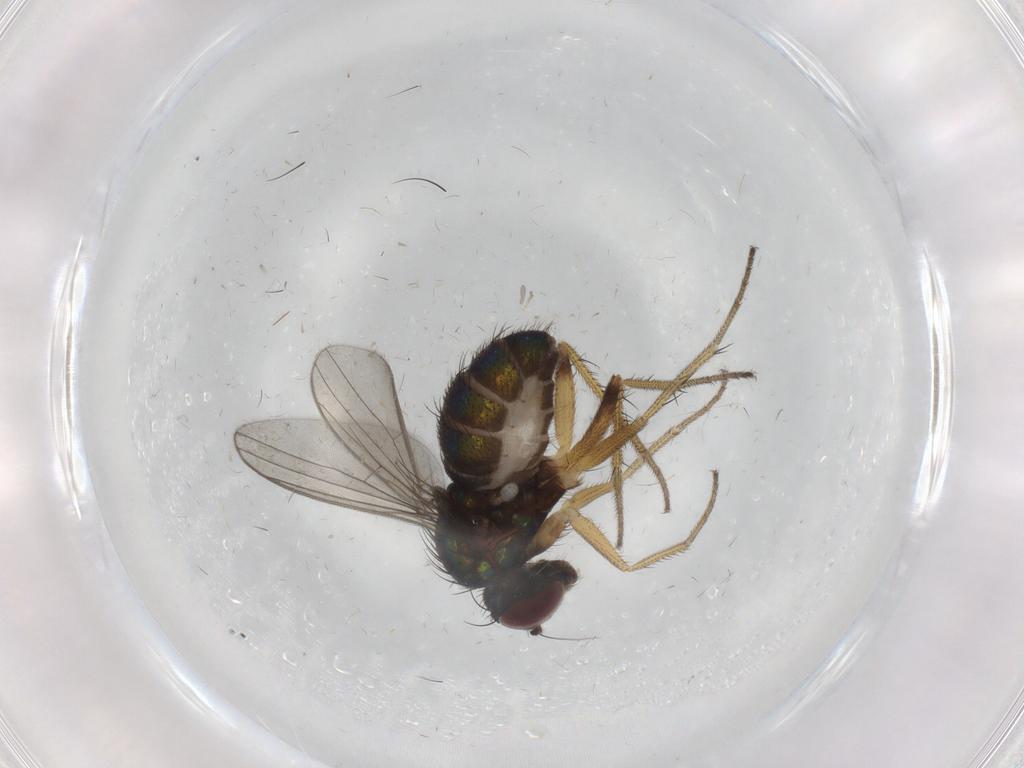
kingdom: Animalia
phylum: Arthropoda
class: Insecta
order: Diptera
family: Dolichopodidae
